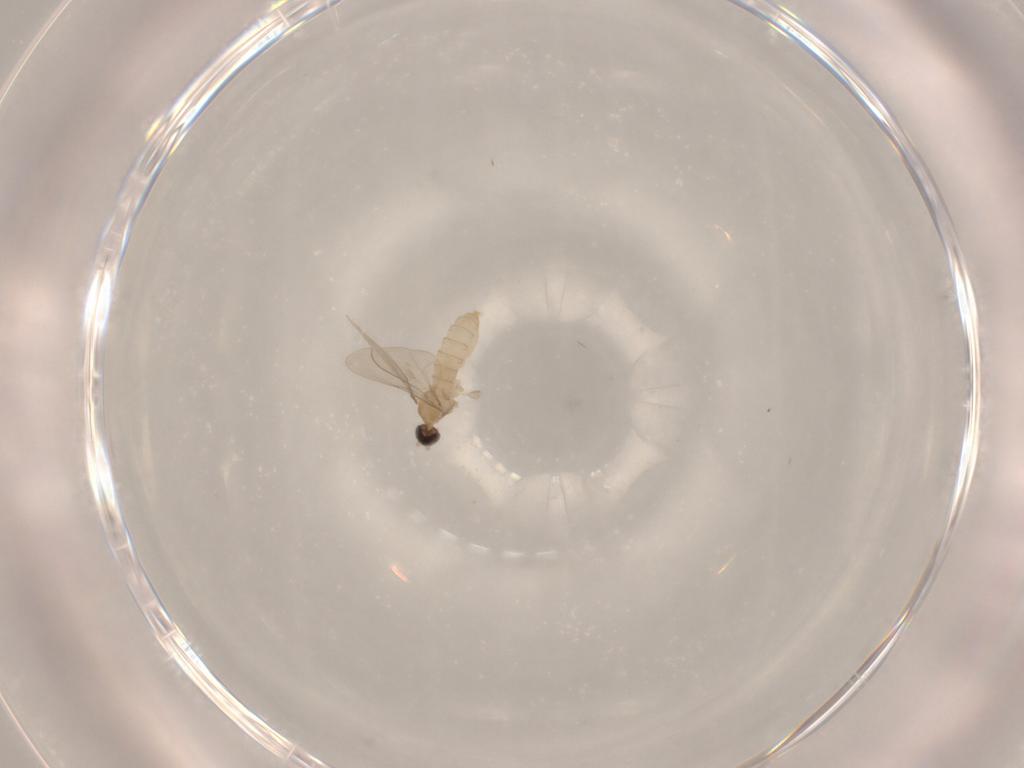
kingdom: Animalia
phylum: Arthropoda
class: Insecta
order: Diptera
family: Cecidomyiidae
